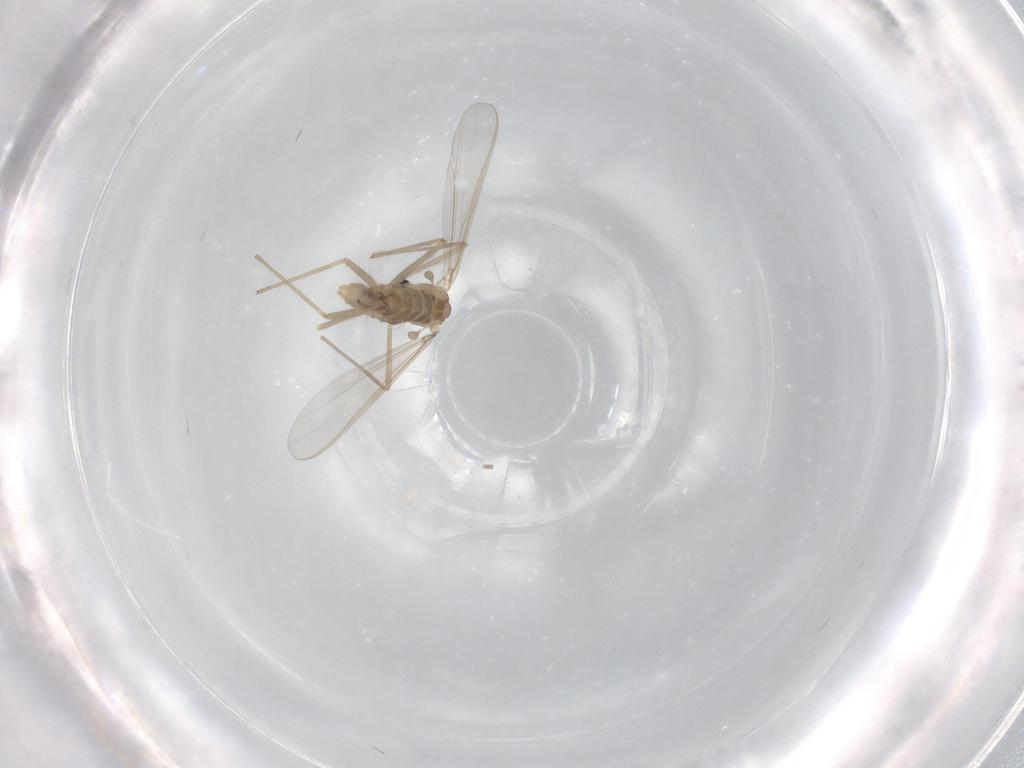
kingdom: Animalia
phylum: Arthropoda
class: Insecta
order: Diptera
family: Chironomidae
